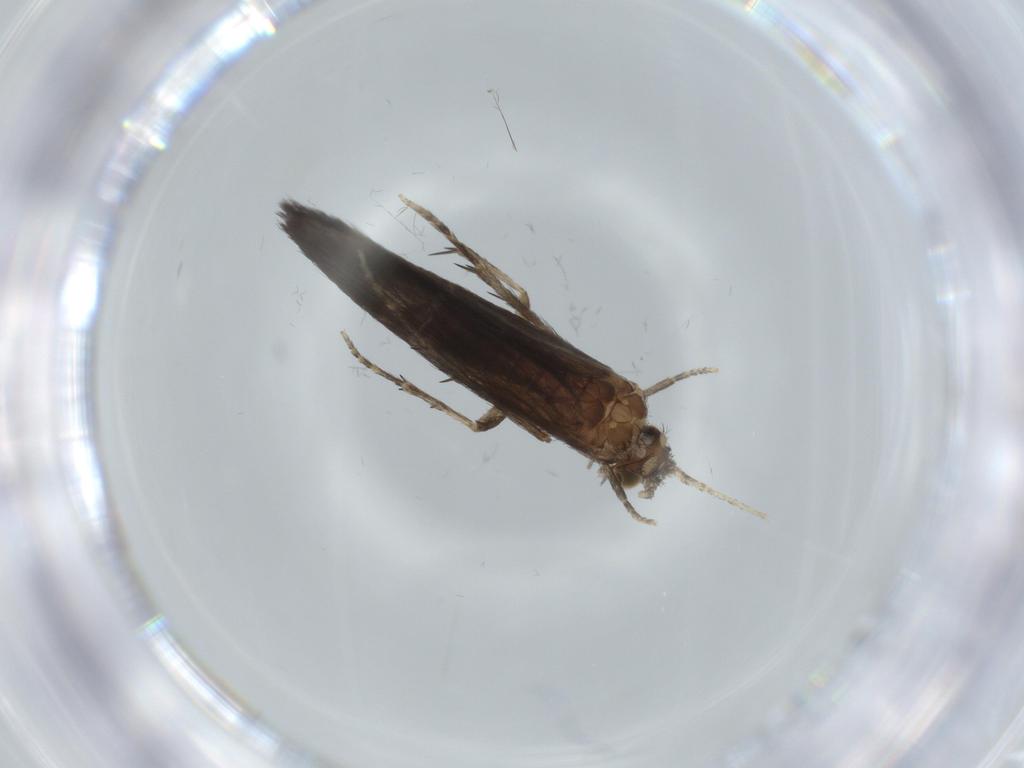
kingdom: Animalia
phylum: Arthropoda
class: Insecta
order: Trichoptera
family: Glossosomatidae
